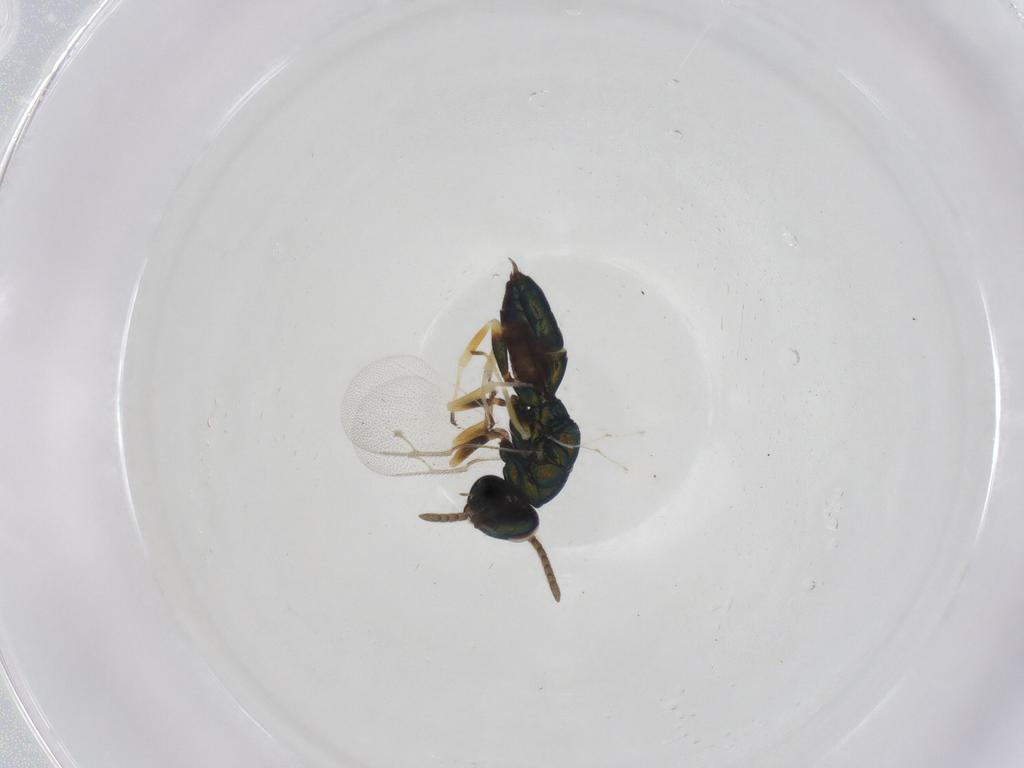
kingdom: Animalia
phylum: Arthropoda
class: Insecta
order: Hymenoptera
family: Pteromalidae
